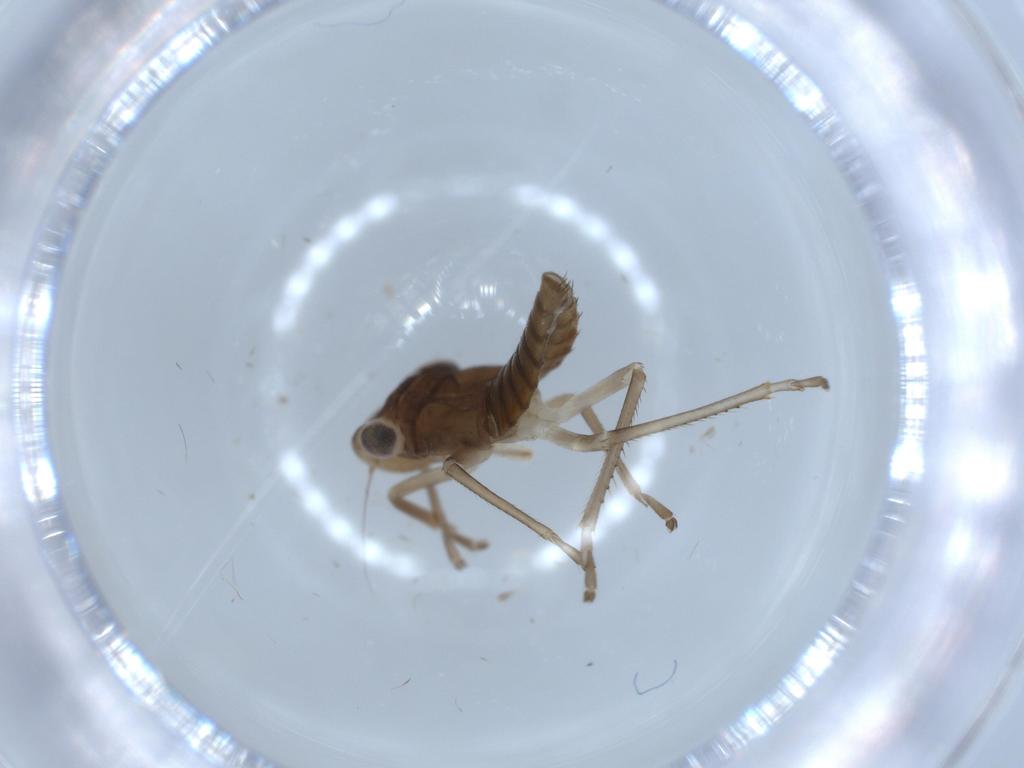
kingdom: Animalia
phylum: Arthropoda
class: Insecta
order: Hemiptera
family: Cicadellidae
